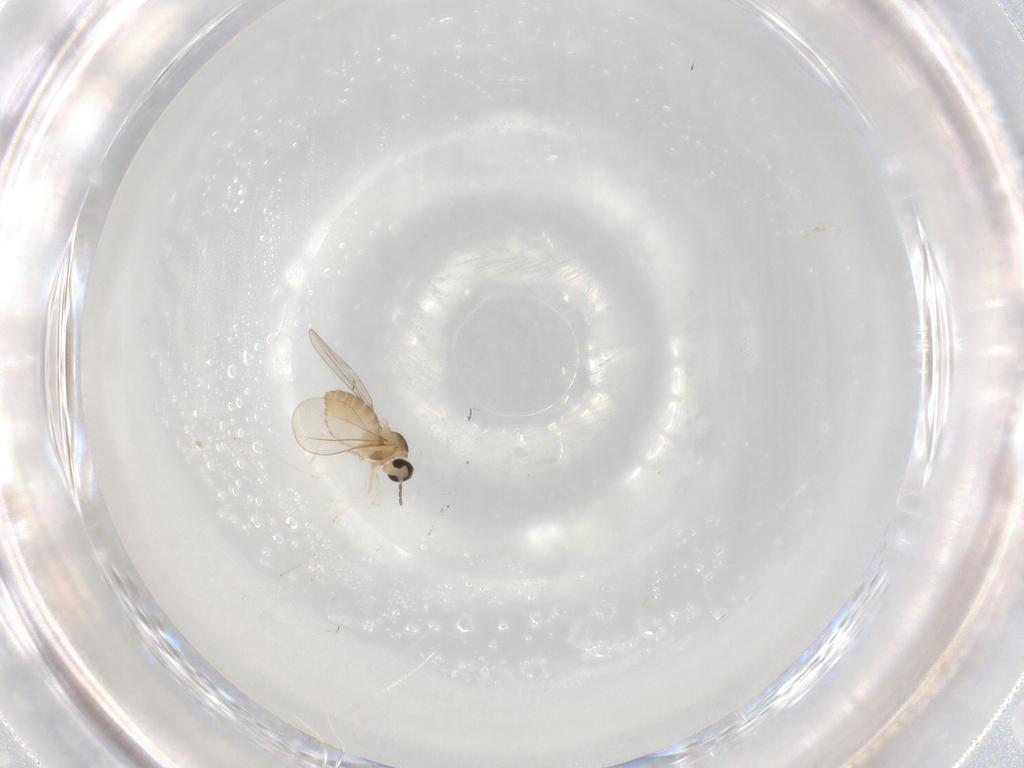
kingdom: Animalia
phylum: Arthropoda
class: Insecta
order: Diptera
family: Cecidomyiidae
